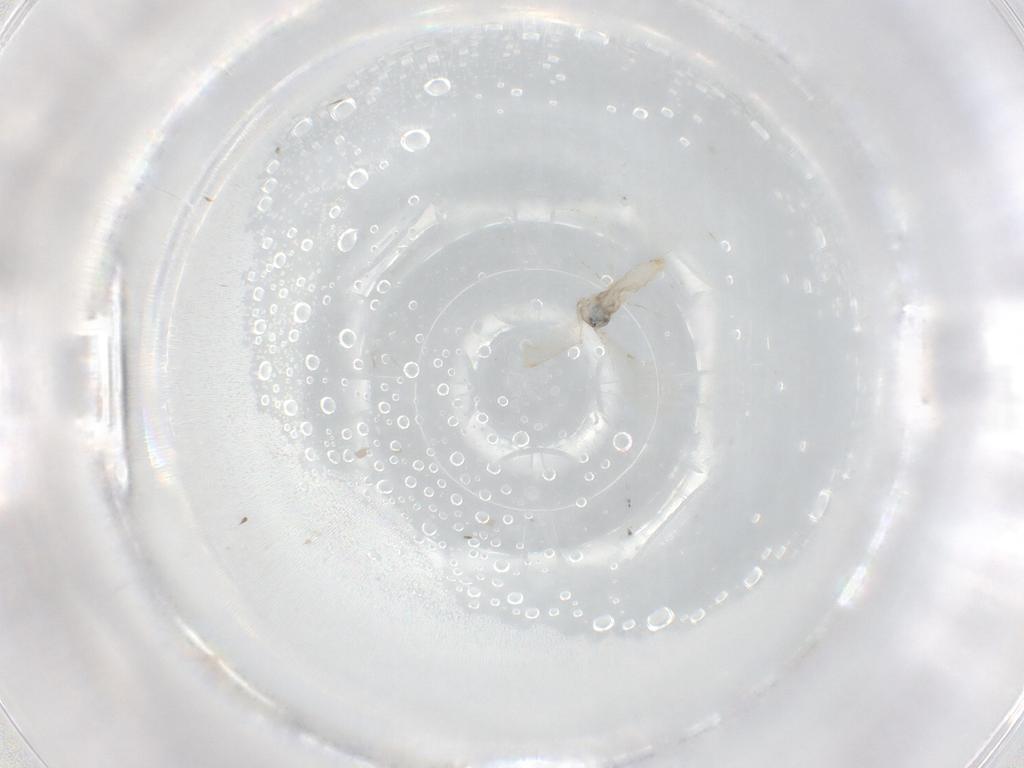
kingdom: Animalia
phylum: Arthropoda
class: Insecta
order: Diptera
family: Cecidomyiidae
